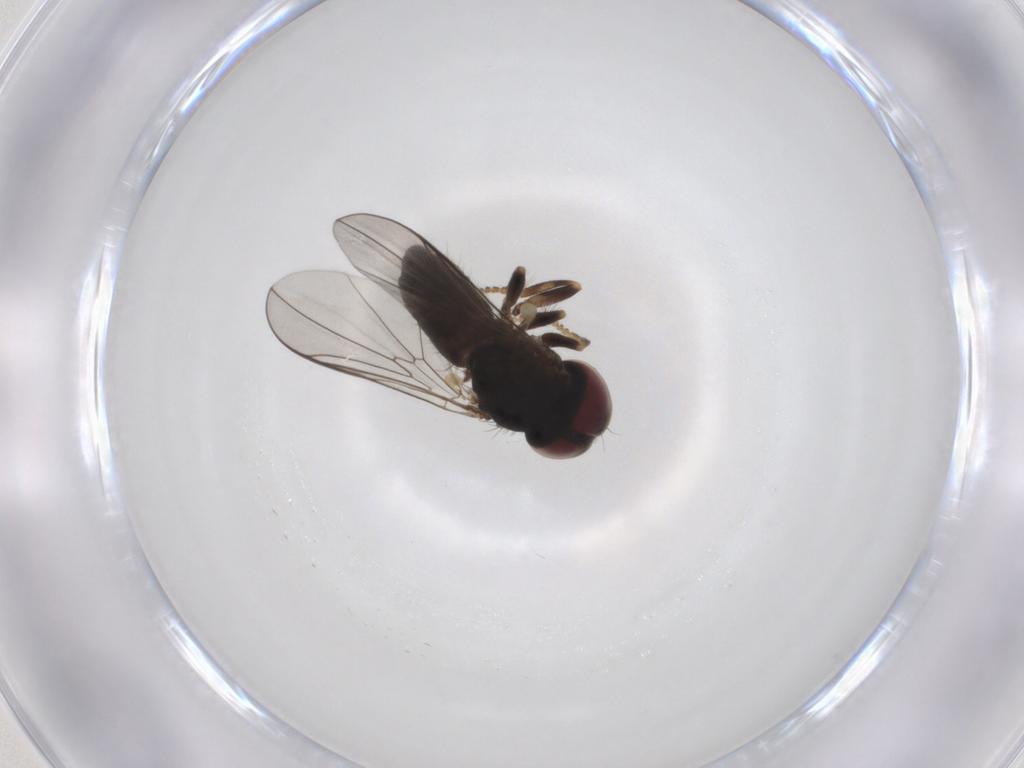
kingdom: Animalia
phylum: Arthropoda
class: Insecta
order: Diptera
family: Pipunculidae
